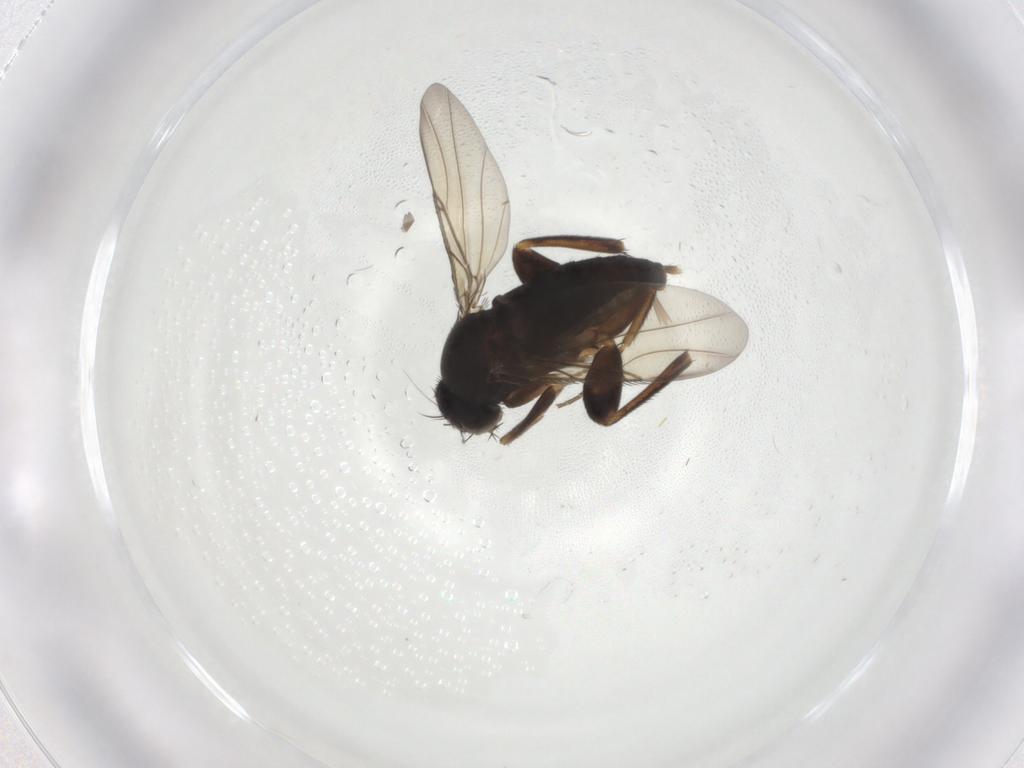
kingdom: Animalia
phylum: Arthropoda
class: Insecta
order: Diptera
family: Phoridae
